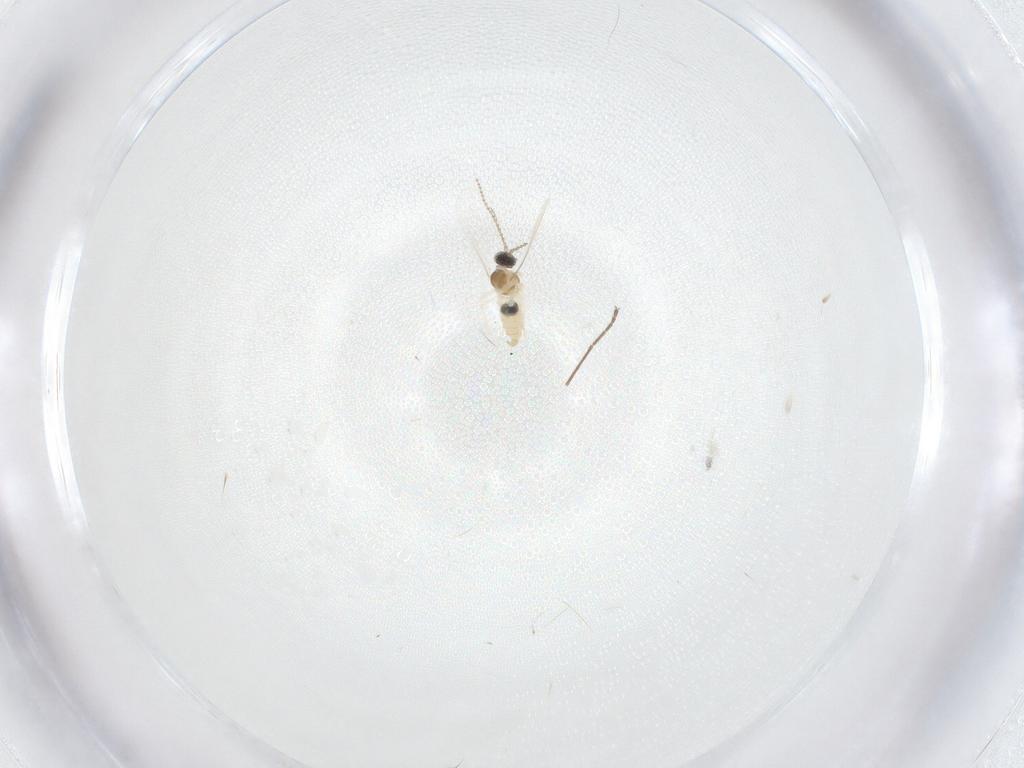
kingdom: Animalia
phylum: Arthropoda
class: Insecta
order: Diptera
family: Cecidomyiidae
